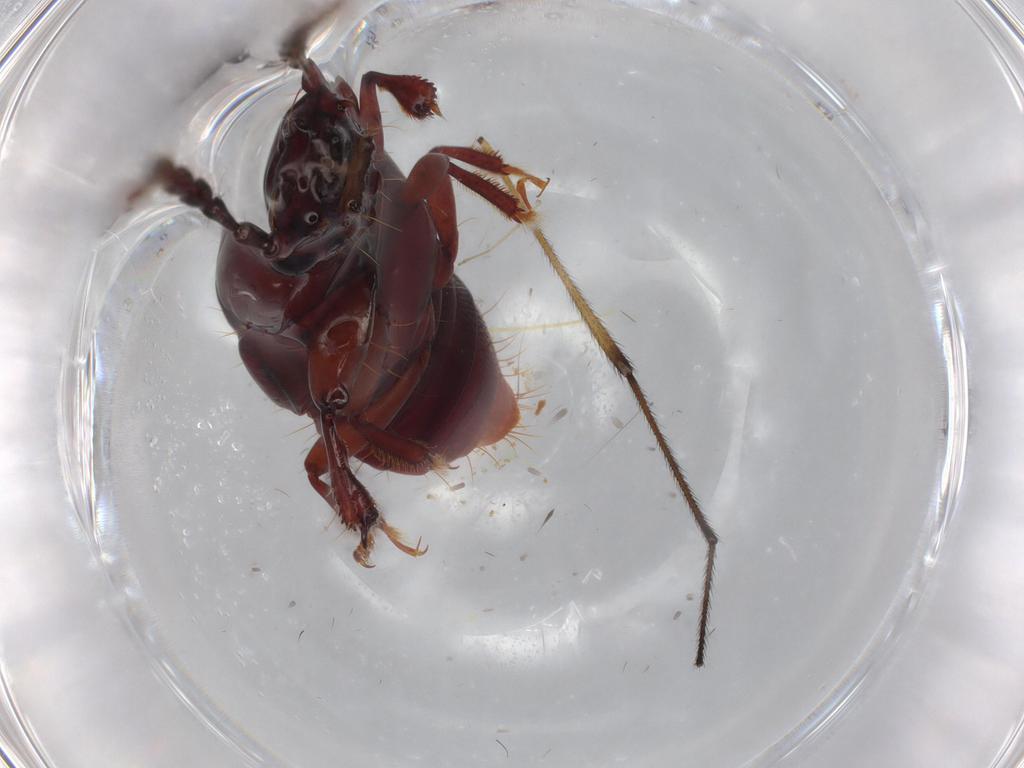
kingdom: Animalia
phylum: Arthropoda
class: Insecta
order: Coleoptera
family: Staphylinidae
